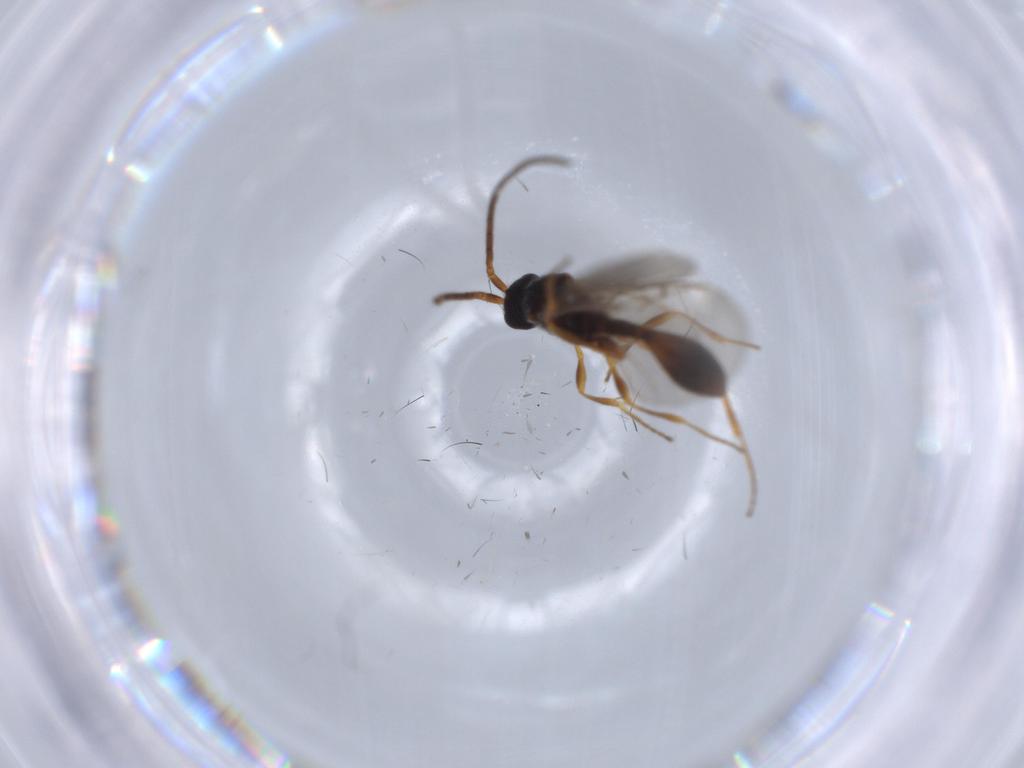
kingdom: Animalia
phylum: Arthropoda
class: Insecta
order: Hymenoptera
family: Diapriidae
